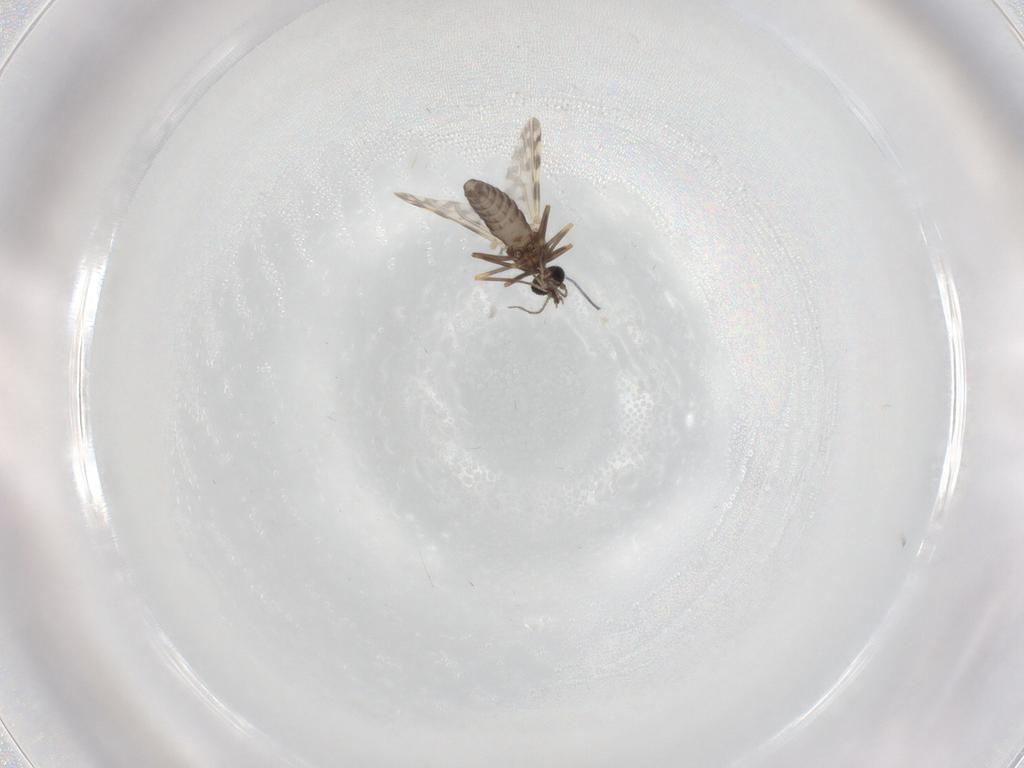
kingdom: Animalia
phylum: Arthropoda
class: Insecta
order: Diptera
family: Ceratopogonidae
